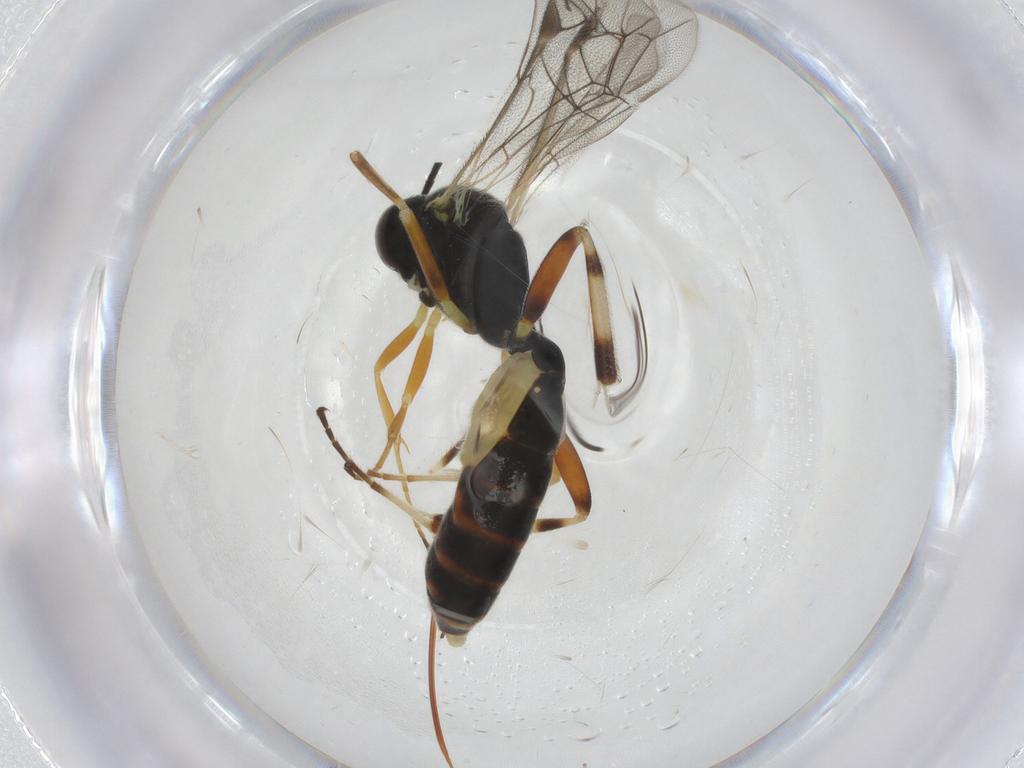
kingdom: Animalia
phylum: Arthropoda
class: Insecta
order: Hymenoptera
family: Ichneumonidae
